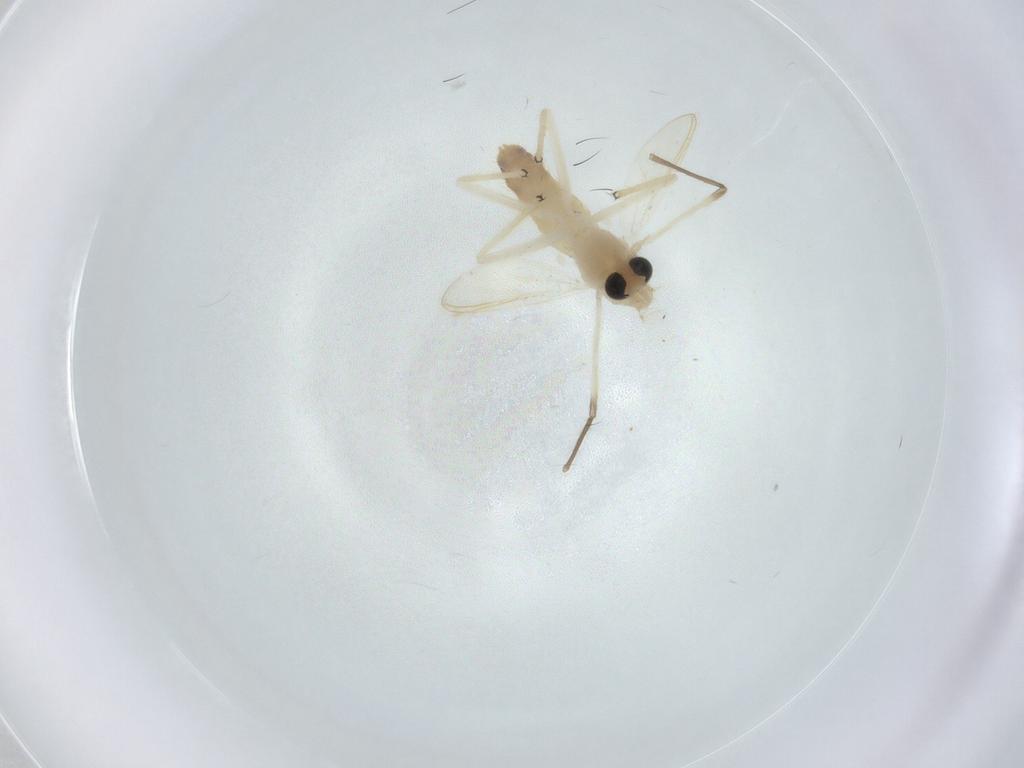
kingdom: Animalia
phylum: Arthropoda
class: Insecta
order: Diptera
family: Chironomidae
